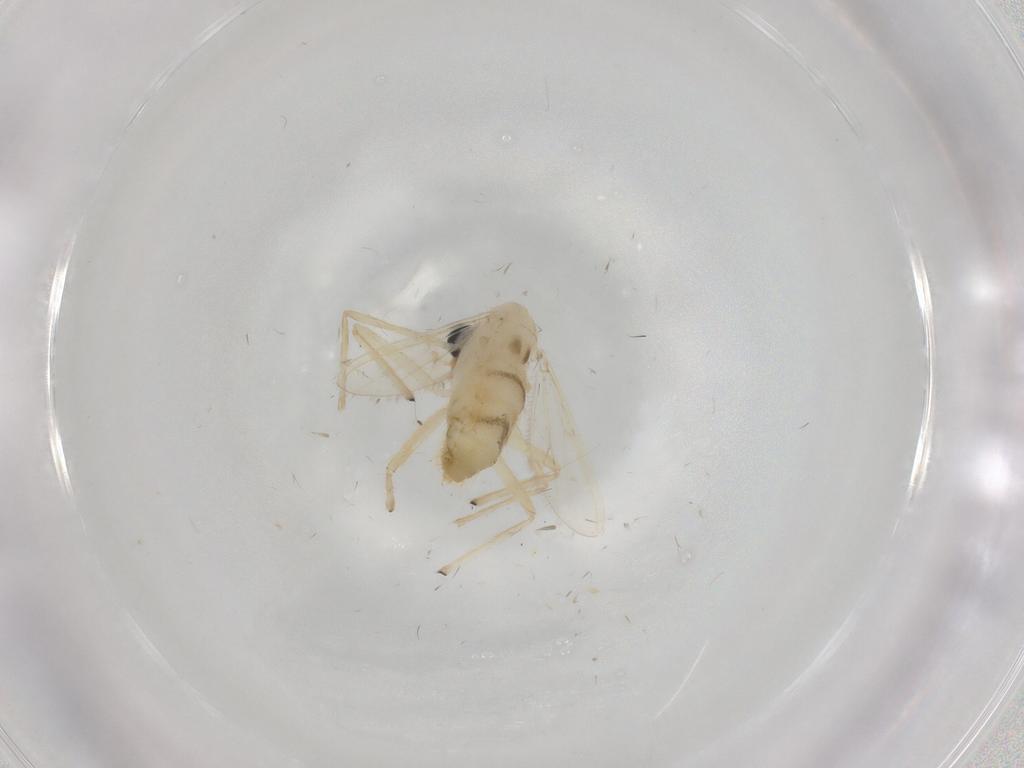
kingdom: Animalia
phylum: Arthropoda
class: Insecta
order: Diptera
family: Chironomidae
